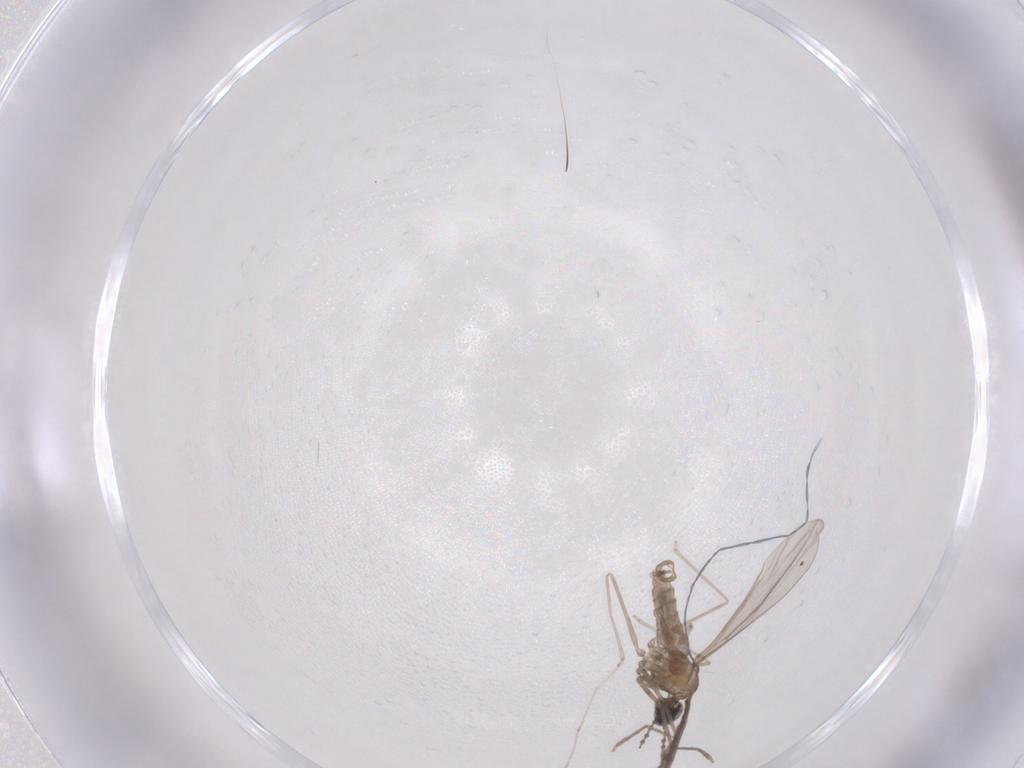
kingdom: Animalia
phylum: Arthropoda
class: Insecta
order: Diptera
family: Cecidomyiidae
